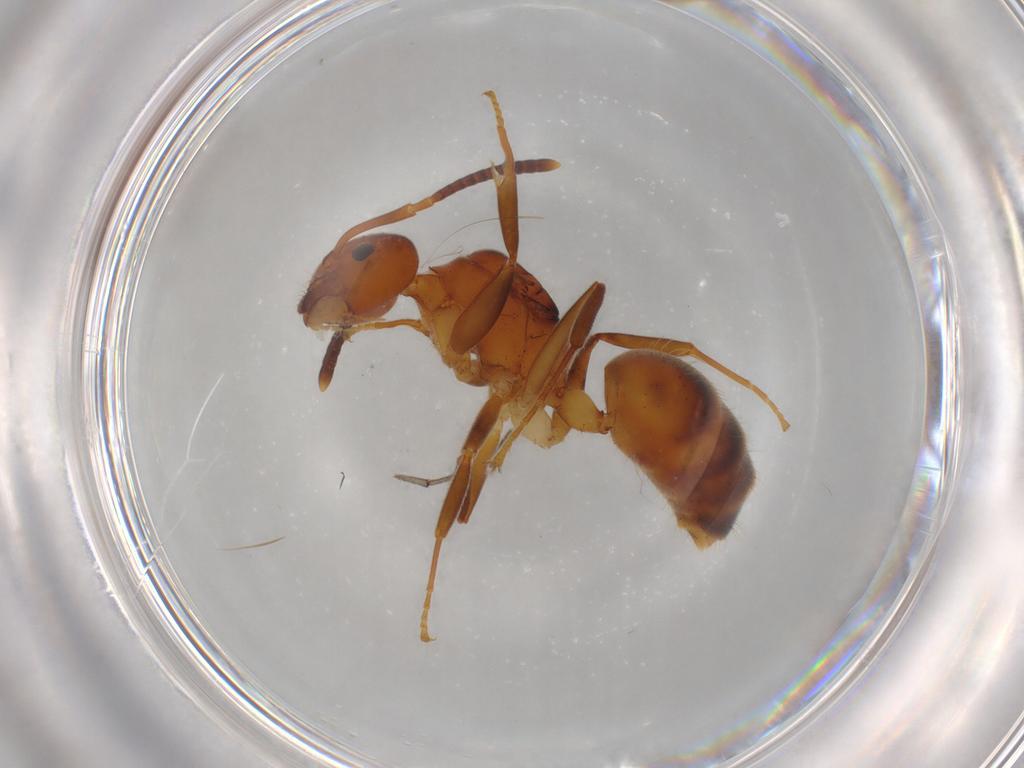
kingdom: Animalia
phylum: Arthropoda
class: Insecta
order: Hymenoptera
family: Formicidae
